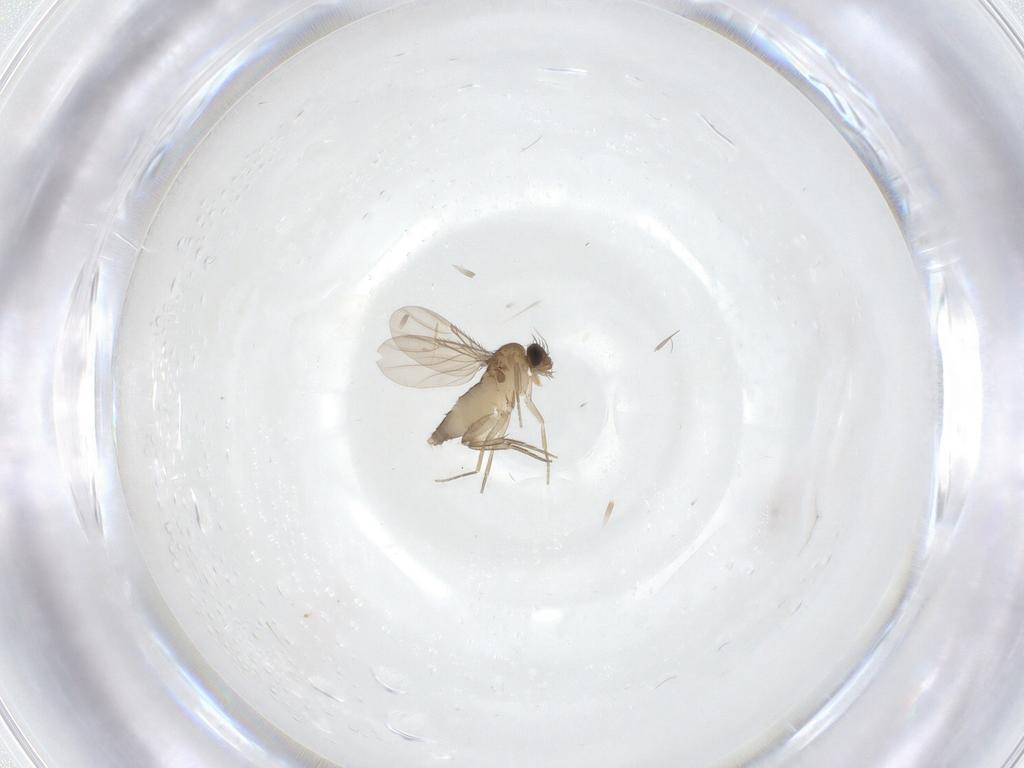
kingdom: Animalia
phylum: Arthropoda
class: Insecta
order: Diptera
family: Phoridae
